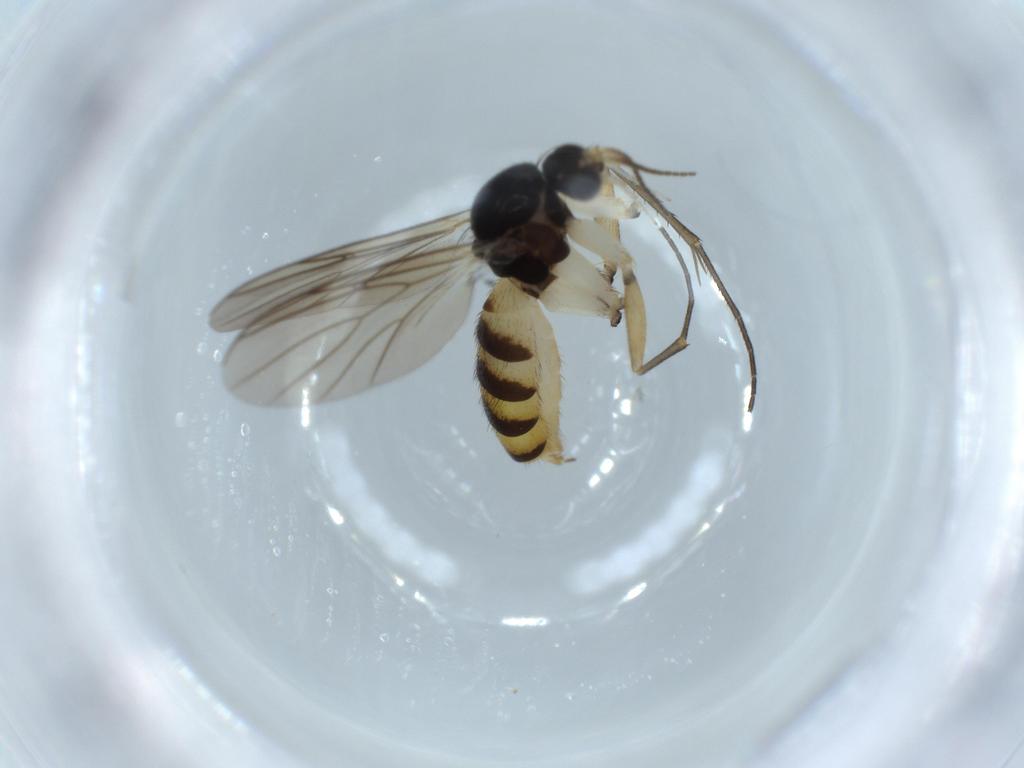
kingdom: Animalia
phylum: Arthropoda
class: Insecta
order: Diptera
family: Mycetophilidae
